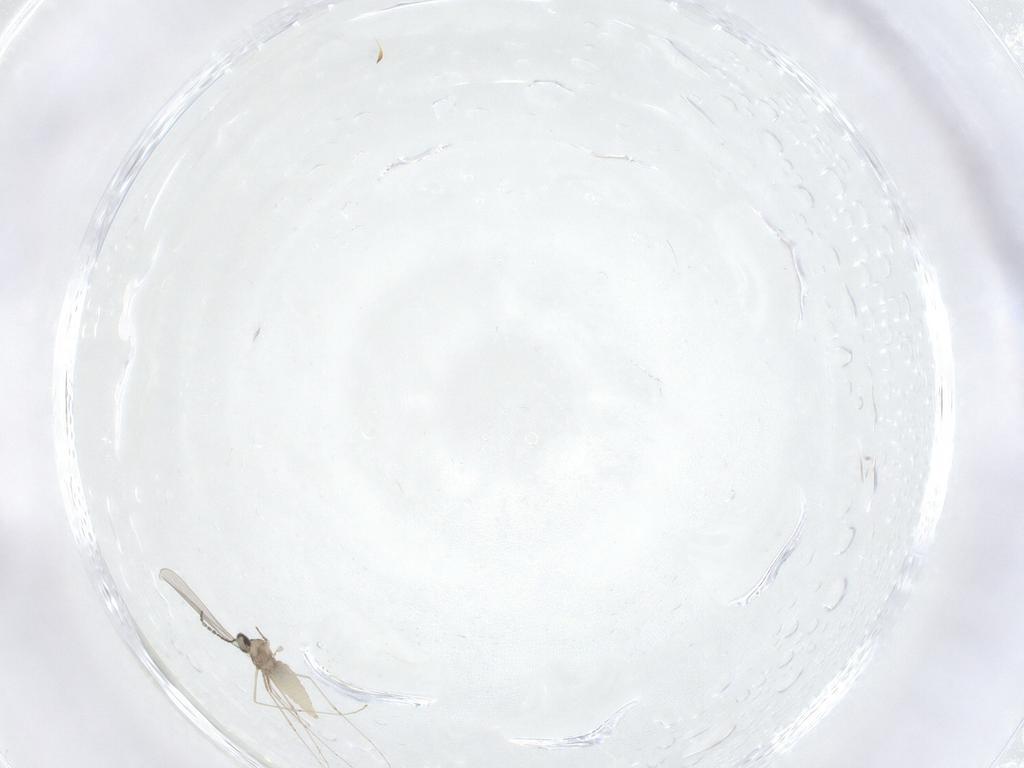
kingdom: Animalia
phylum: Arthropoda
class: Insecta
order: Diptera
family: Cecidomyiidae
